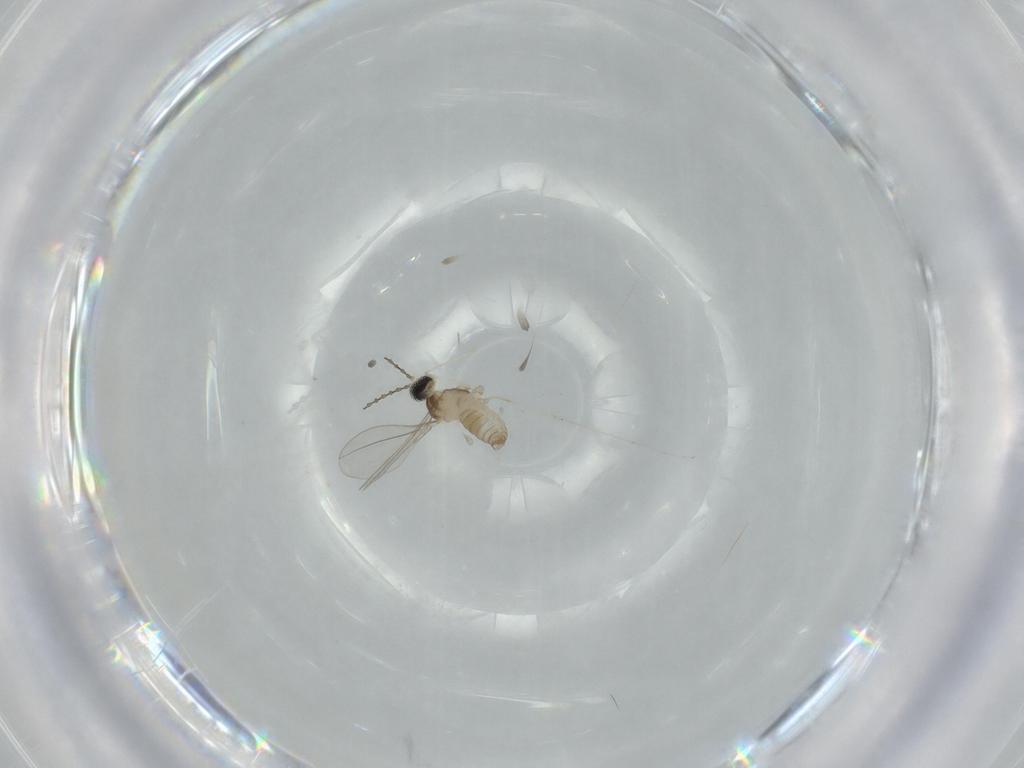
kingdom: Animalia
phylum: Arthropoda
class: Insecta
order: Diptera
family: Cecidomyiidae
